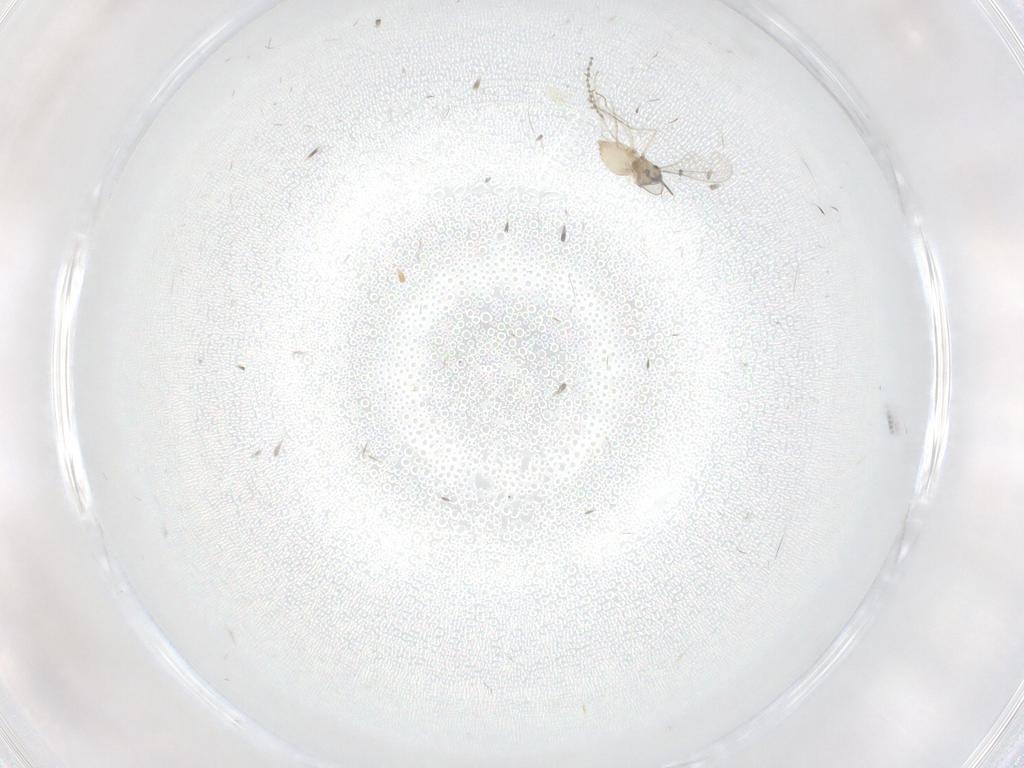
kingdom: Animalia
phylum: Arthropoda
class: Insecta
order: Diptera
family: Cecidomyiidae
